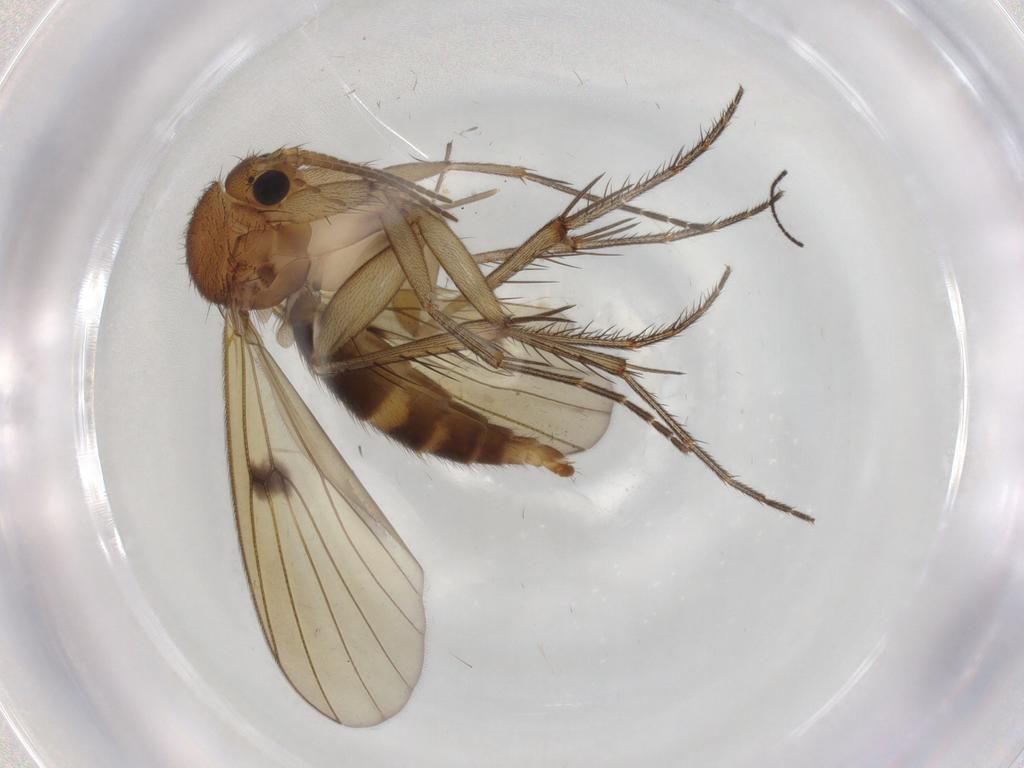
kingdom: Animalia
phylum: Arthropoda
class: Insecta
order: Diptera
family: Mycetophilidae
